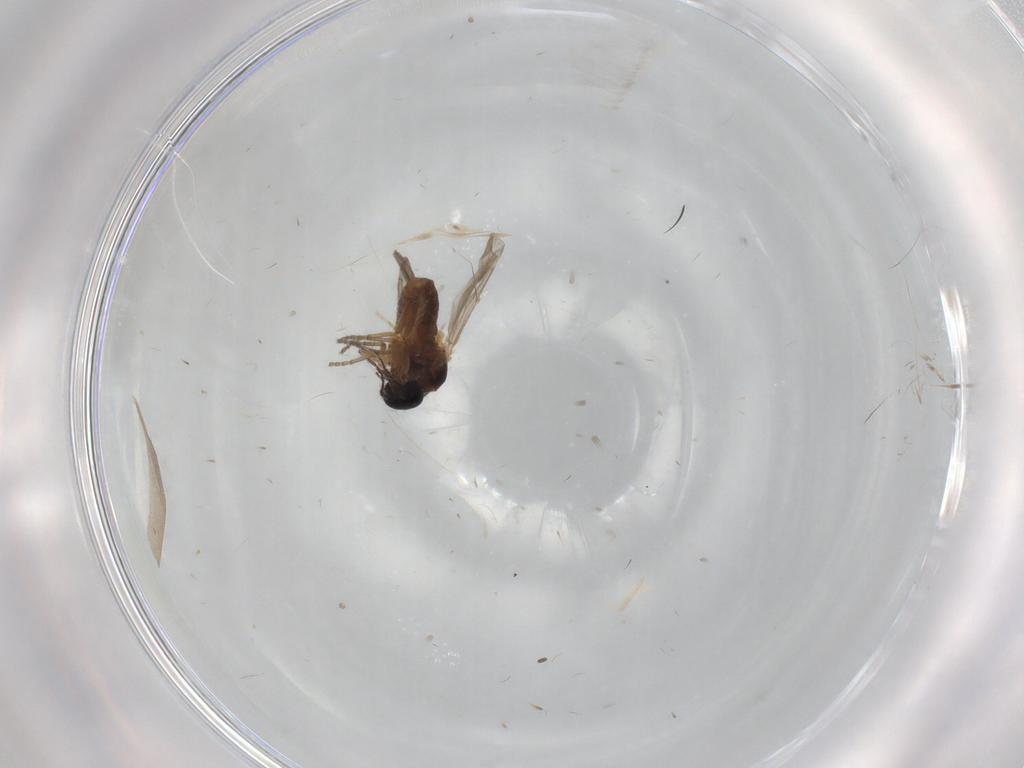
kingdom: Animalia
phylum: Arthropoda
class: Insecta
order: Diptera
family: Ceratopogonidae
